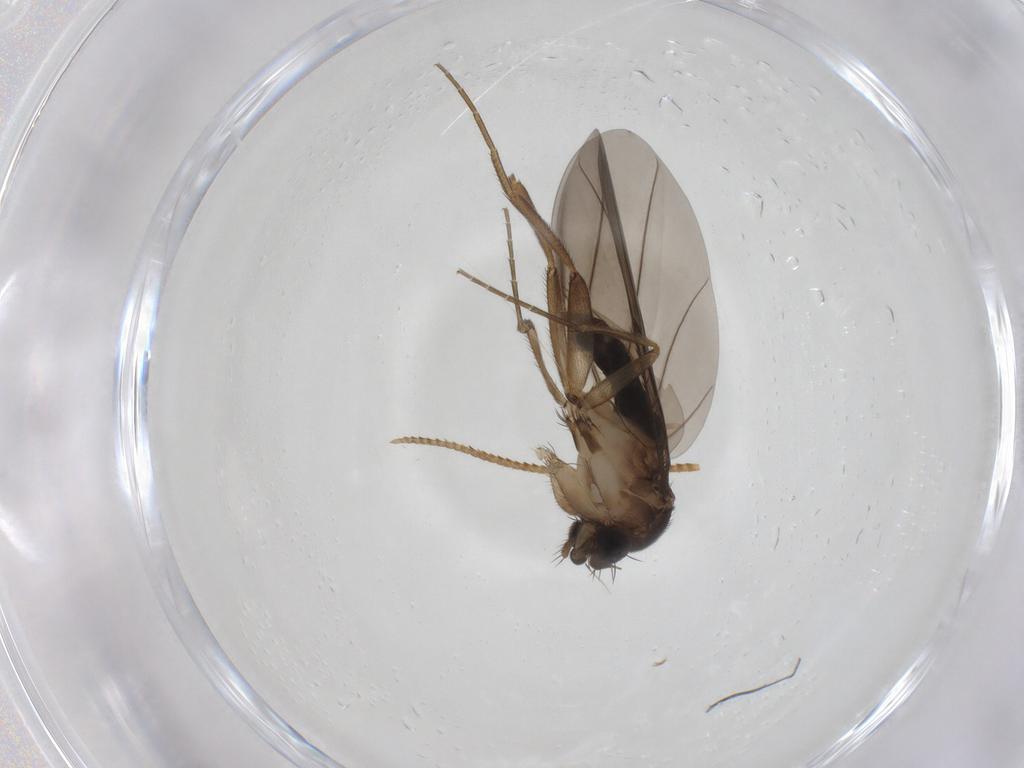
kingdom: Animalia
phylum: Arthropoda
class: Insecta
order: Diptera
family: Phoridae
